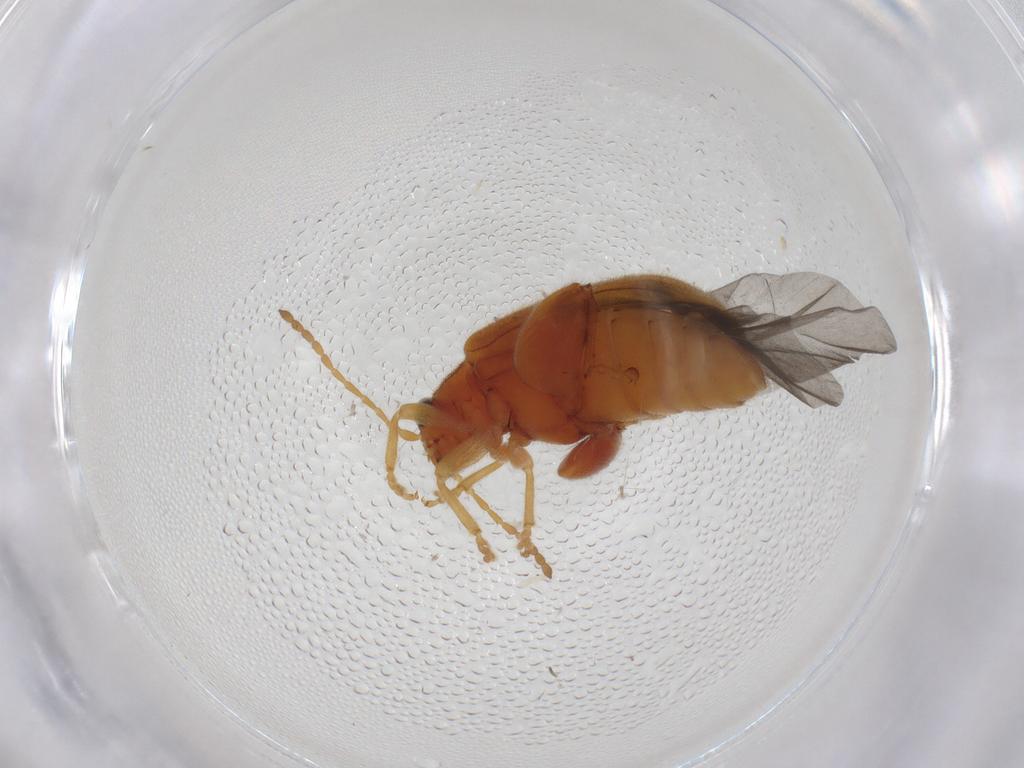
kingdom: Animalia
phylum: Arthropoda
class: Insecta
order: Coleoptera
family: Chrysomelidae
